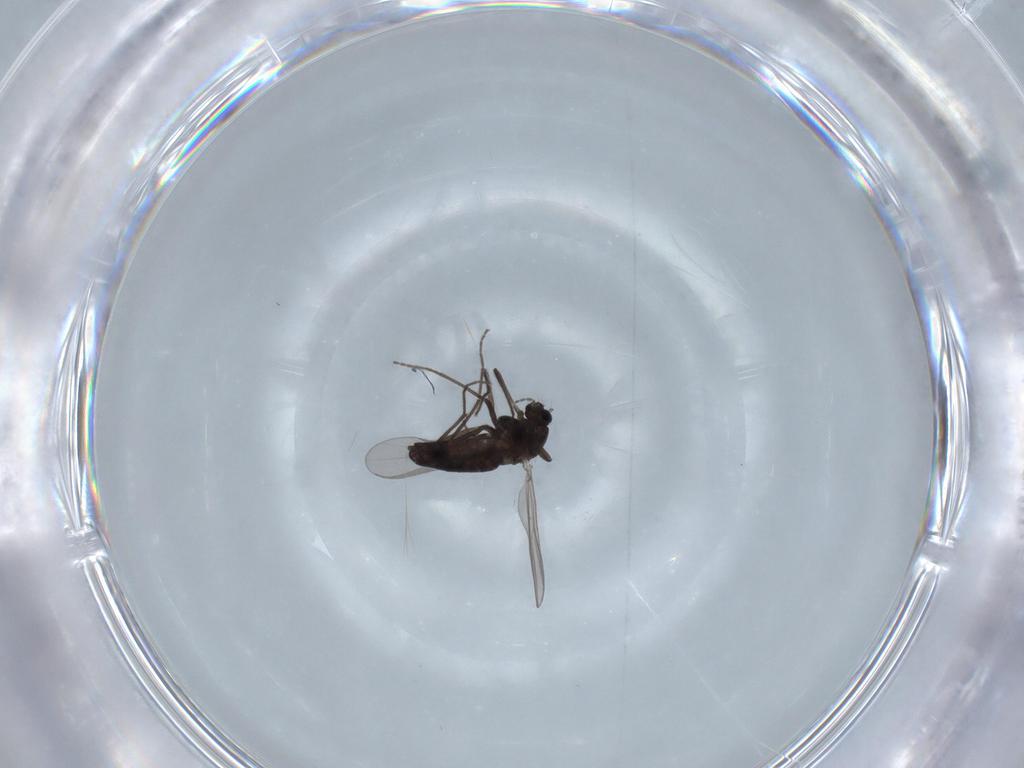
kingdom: Animalia
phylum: Arthropoda
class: Insecta
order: Diptera
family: Chironomidae
